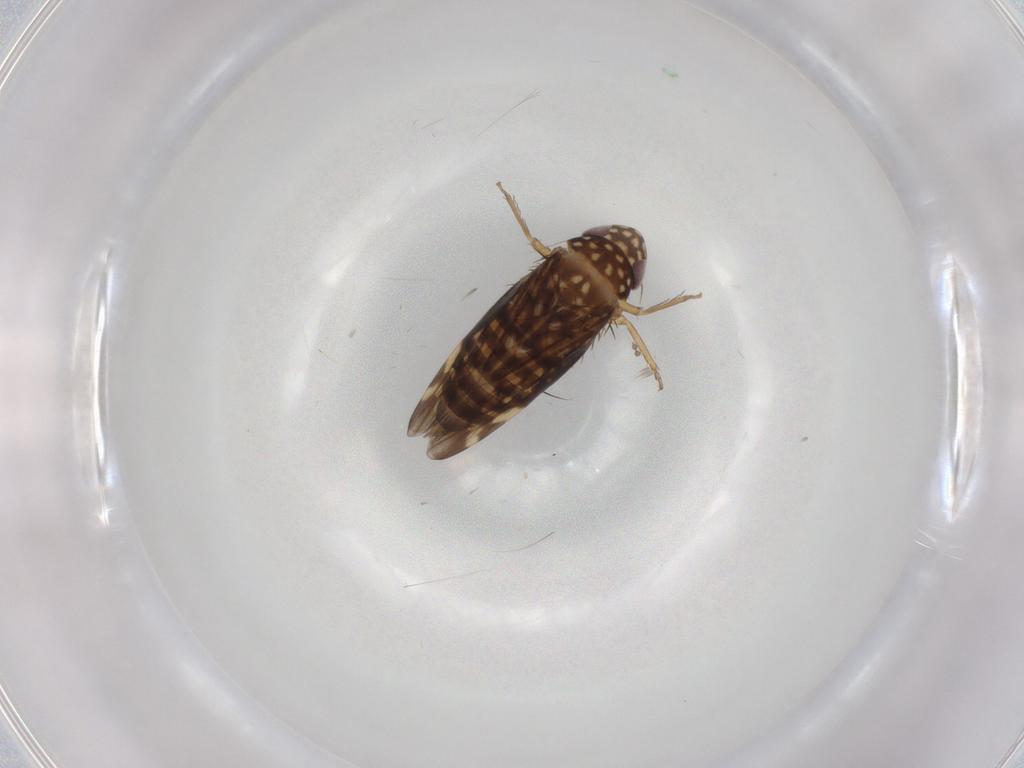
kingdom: Animalia
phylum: Arthropoda
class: Insecta
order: Hemiptera
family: Cicadellidae
